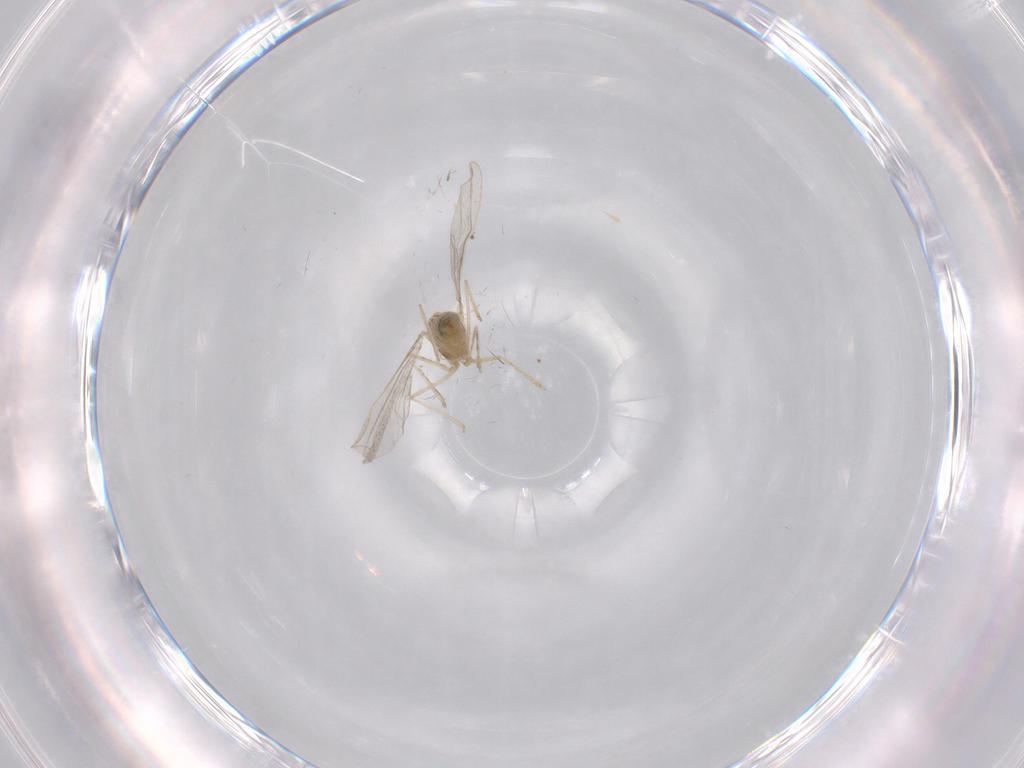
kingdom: Animalia
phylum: Arthropoda
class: Insecta
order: Diptera
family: Cecidomyiidae
